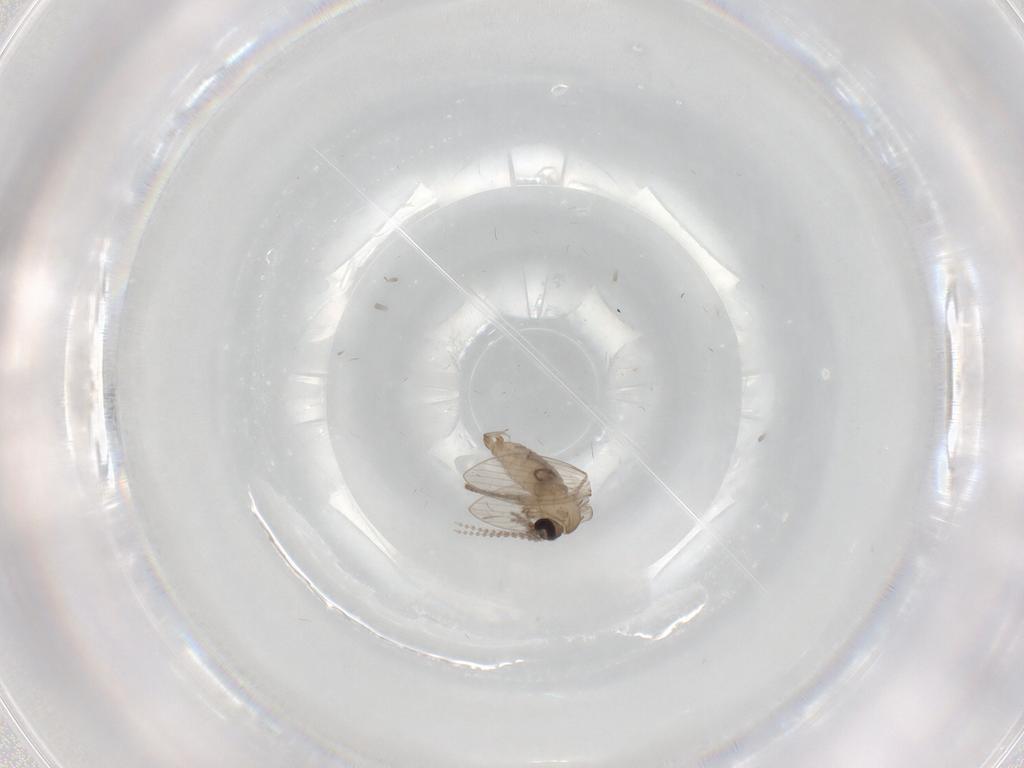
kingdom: Animalia
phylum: Arthropoda
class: Insecta
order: Diptera
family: Psychodidae
